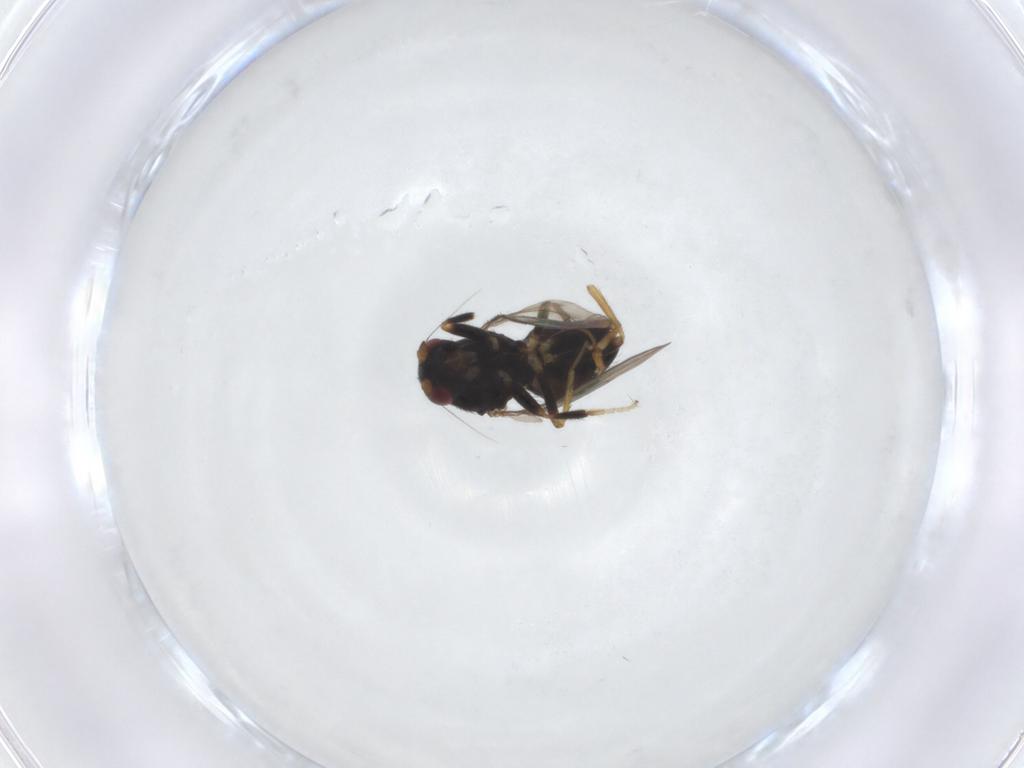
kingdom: Animalia
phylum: Arthropoda
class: Insecta
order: Diptera
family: Sphaeroceridae
